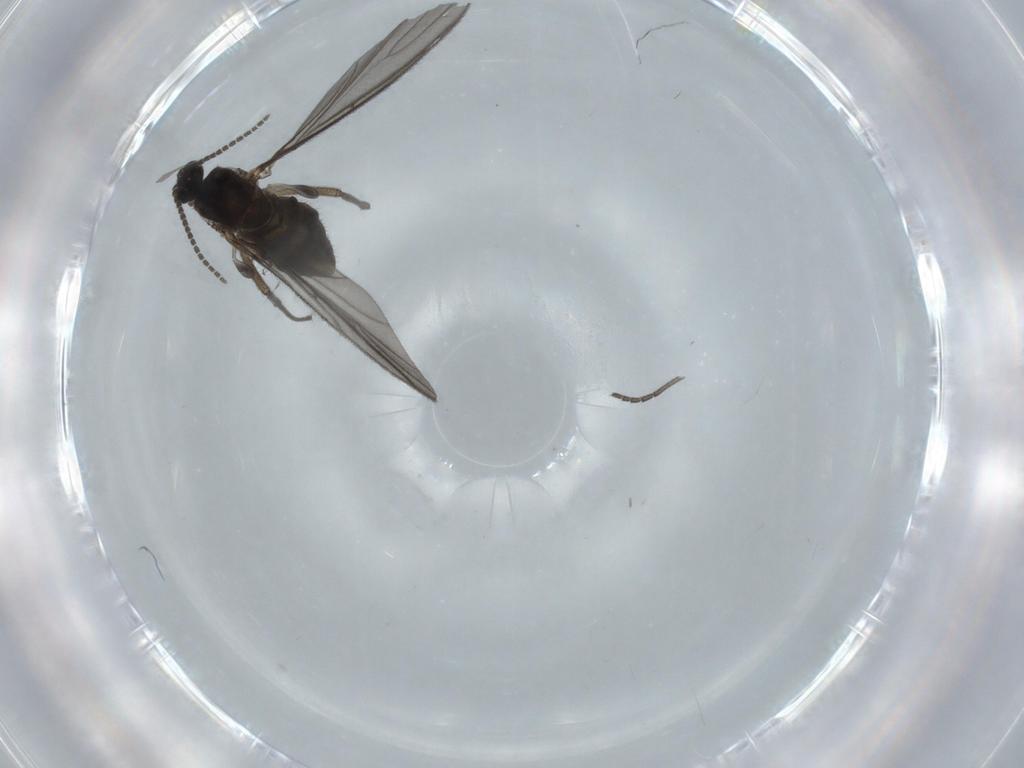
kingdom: Animalia
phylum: Arthropoda
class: Insecta
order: Diptera
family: Sciaridae
